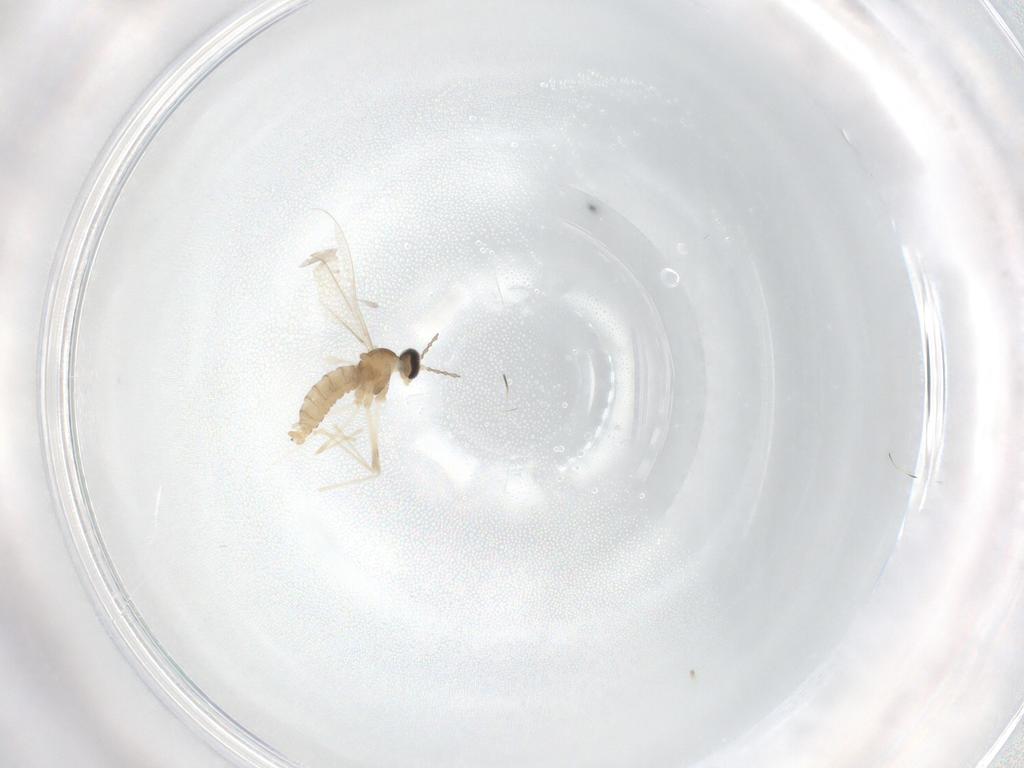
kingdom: Animalia
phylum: Arthropoda
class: Insecta
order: Diptera
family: Cecidomyiidae
